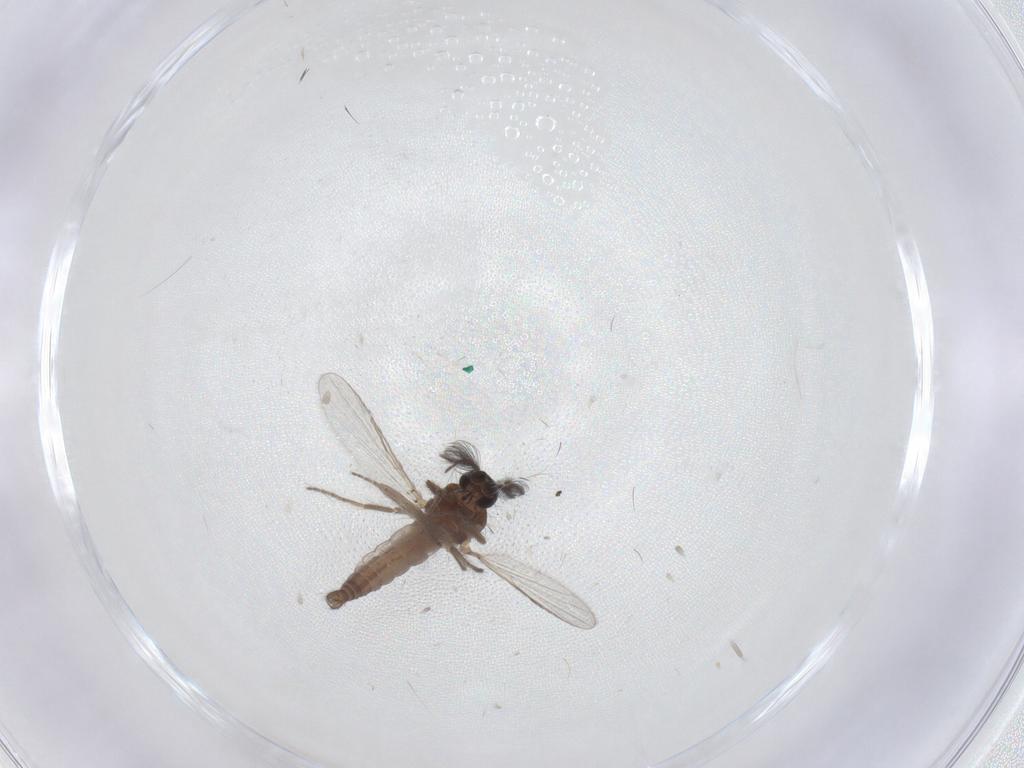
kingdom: Animalia
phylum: Arthropoda
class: Insecta
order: Diptera
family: Ceratopogonidae
